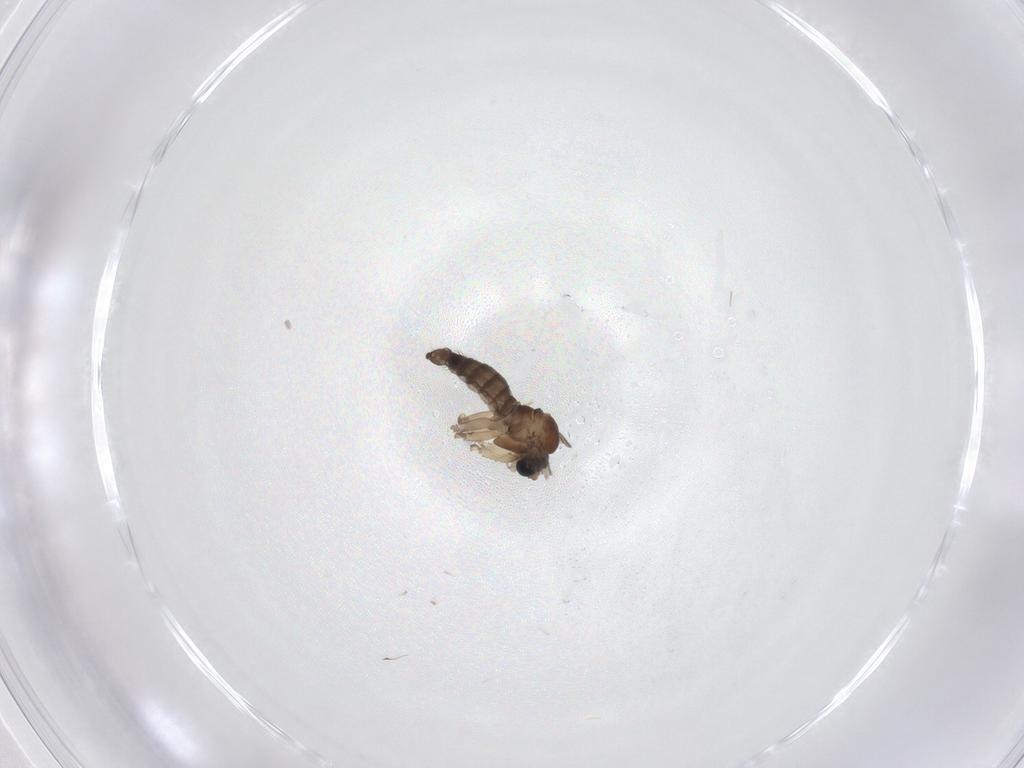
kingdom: Animalia
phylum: Arthropoda
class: Insecta
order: Diptera
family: Sciaridae
